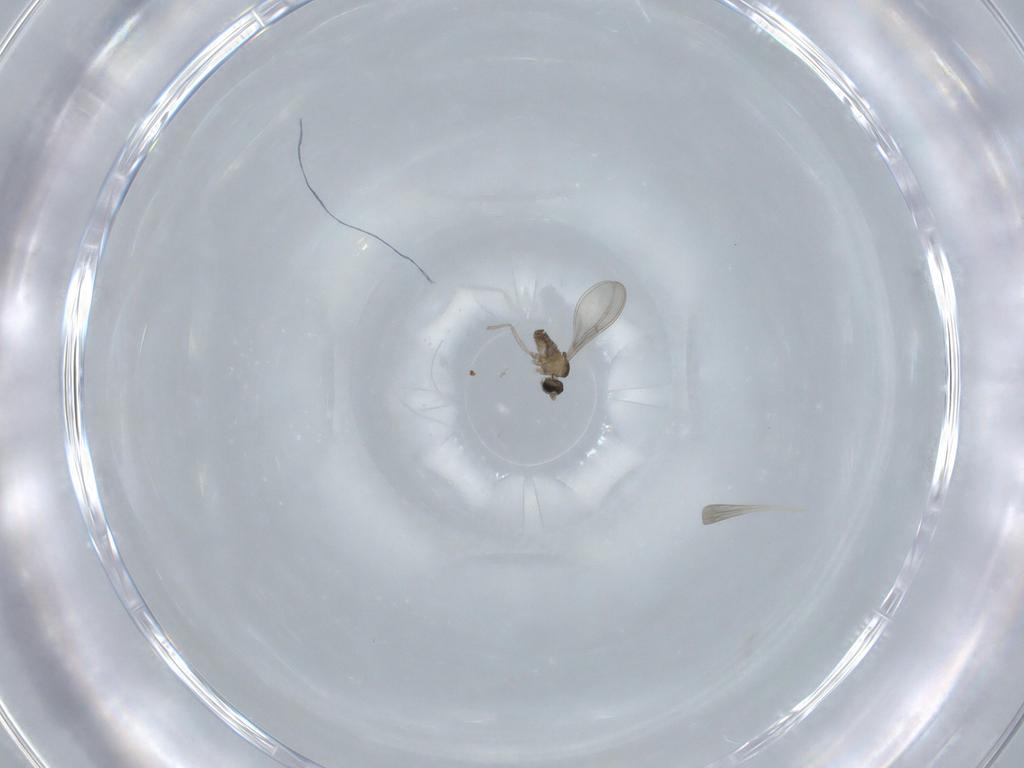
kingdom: Animalia
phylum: Arthropoda
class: Insecta
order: Diptera
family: Cecidomyiidae
